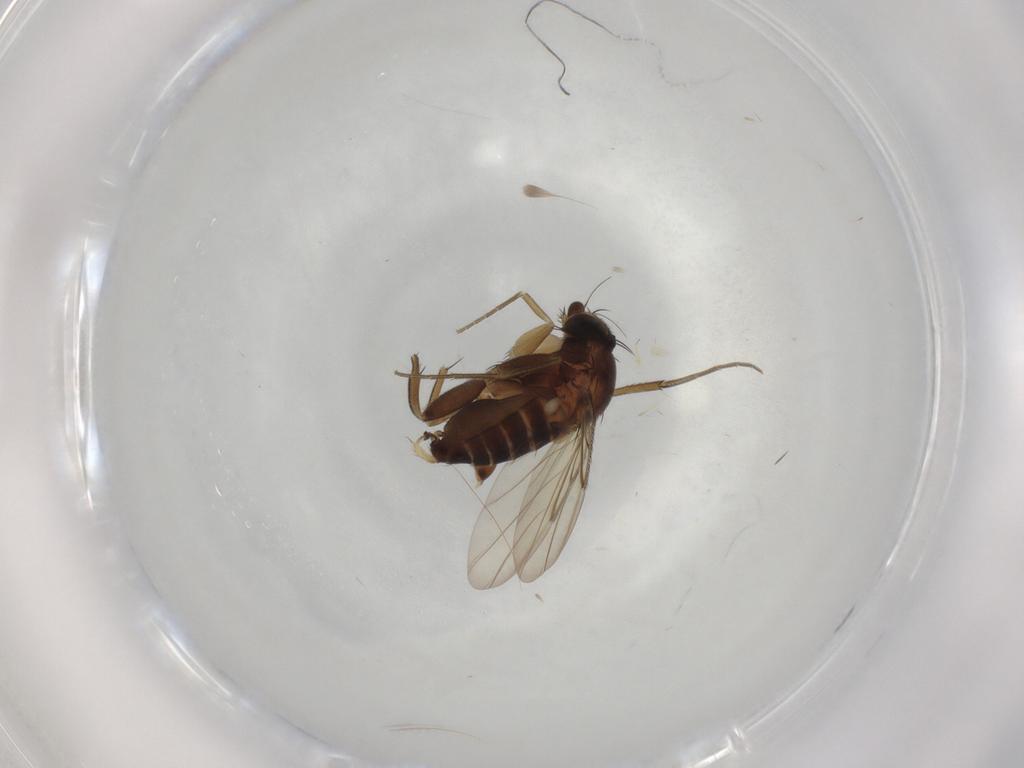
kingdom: Animalia
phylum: Arthropoda
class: Insecta
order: Diptera
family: Phoridae
